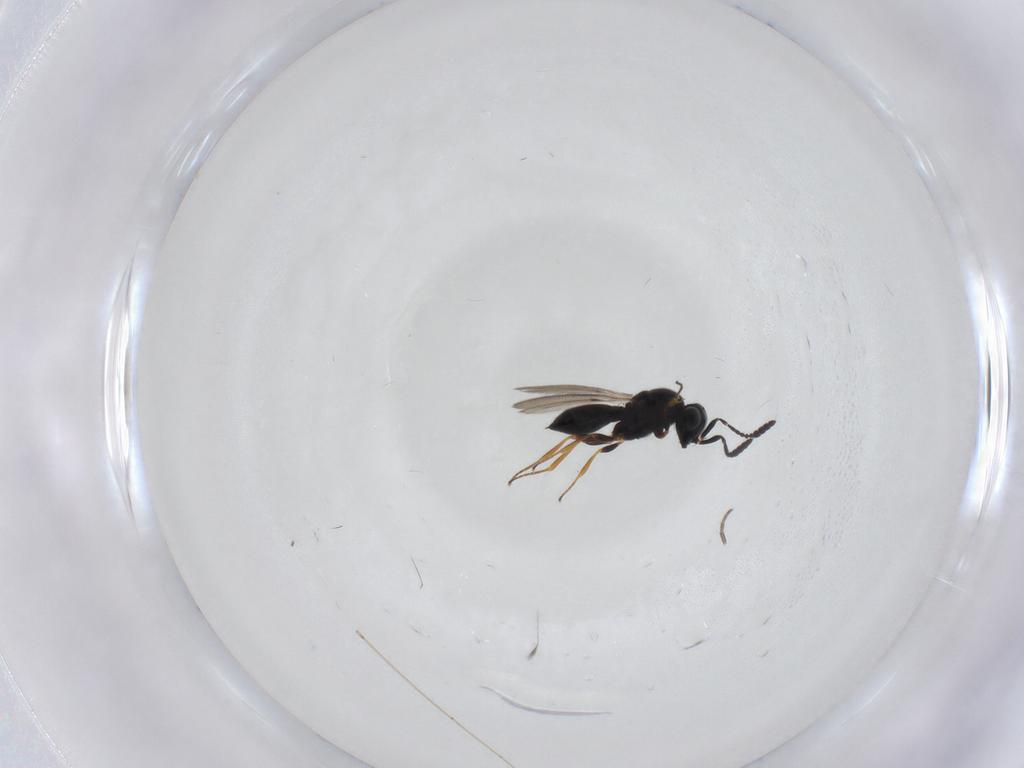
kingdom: Animalia
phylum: Arthropoda
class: Insecta
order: Hymenoptera
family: Scelionidae
